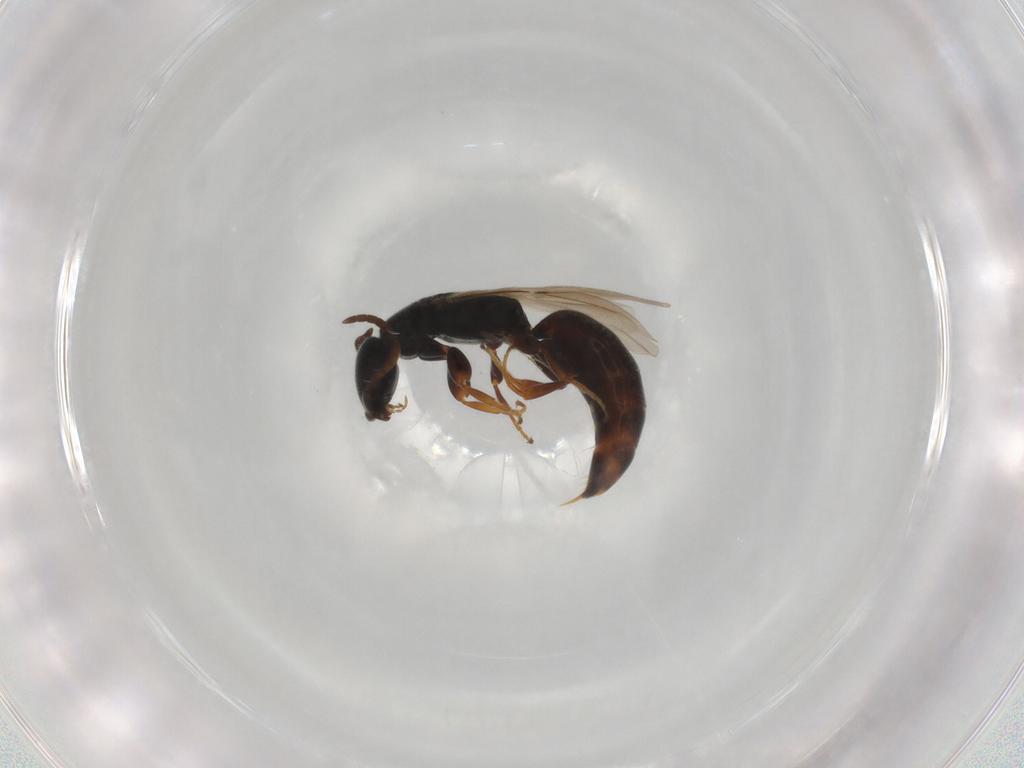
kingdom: Animalia
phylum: Arthropoda
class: Insecta
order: Hymenoptera
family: Bethylidae
